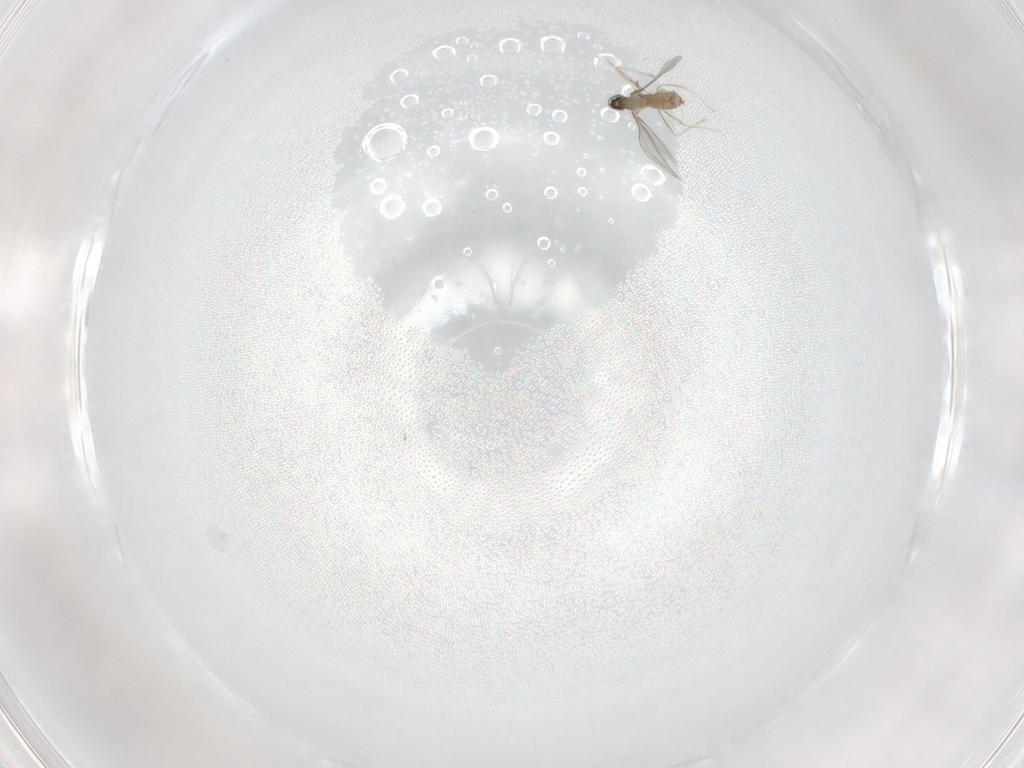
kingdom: Animalia
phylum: Arthropoda
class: Insecta
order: Diptera
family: Cecidomyiidae
